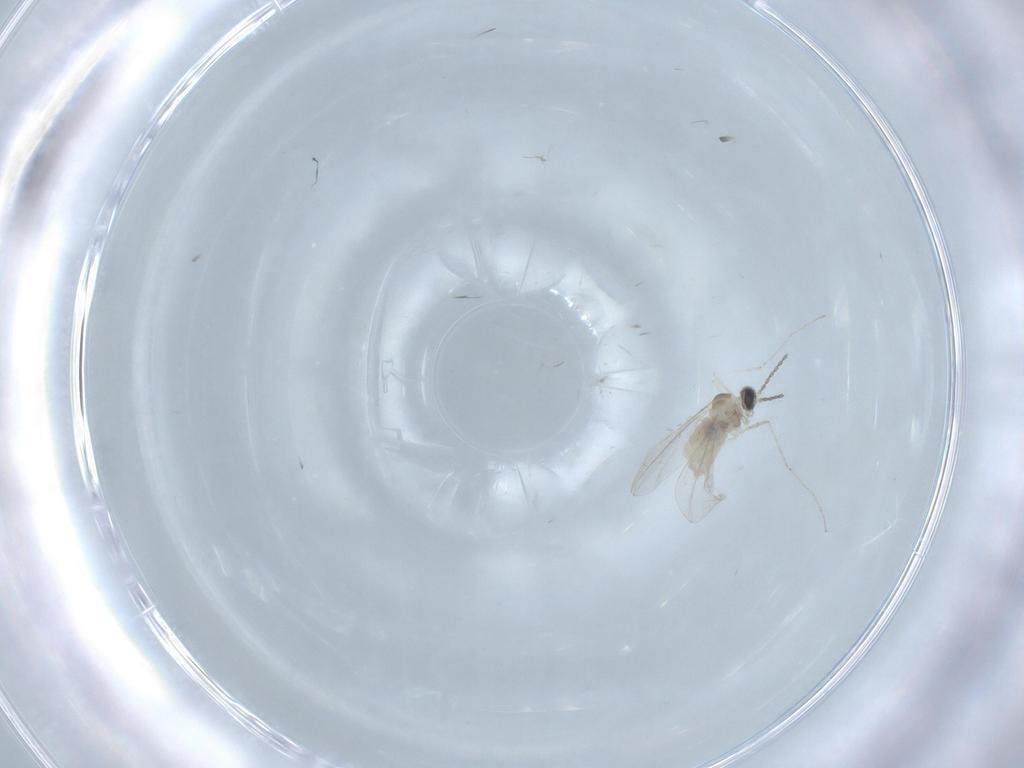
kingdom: Animalia
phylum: Arthropoda
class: Insecta
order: Diptera
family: Cecidomyiidae
